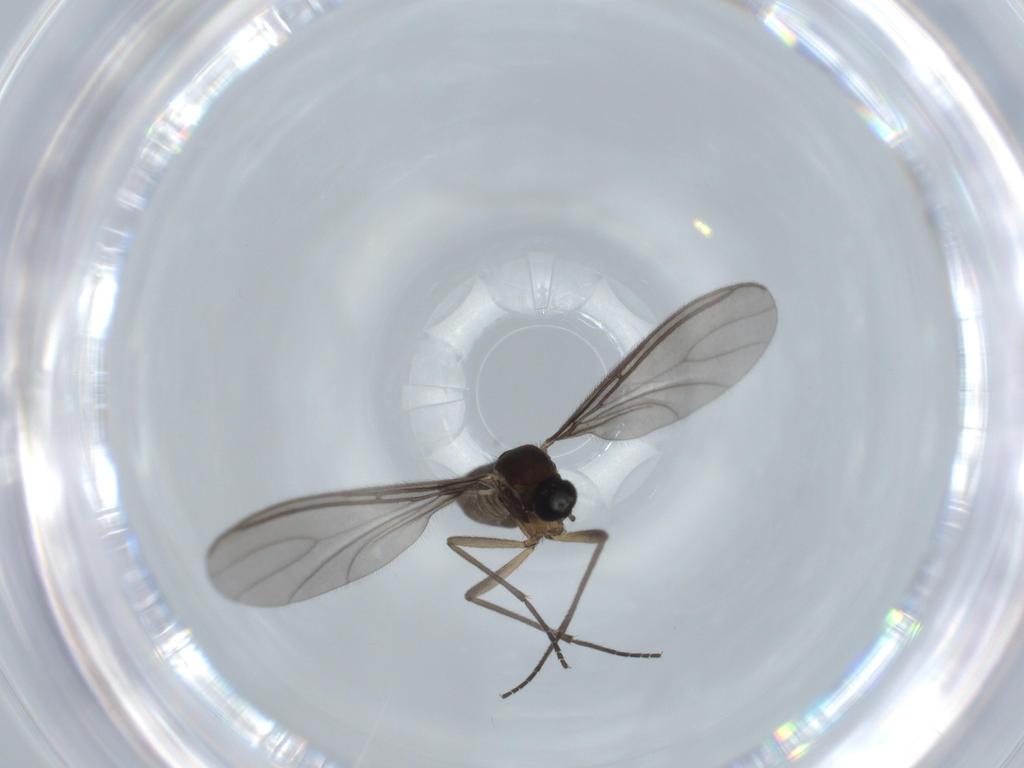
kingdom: Animalia
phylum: Arthropoda
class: Insecta
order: Diptera
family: Sciaridae
